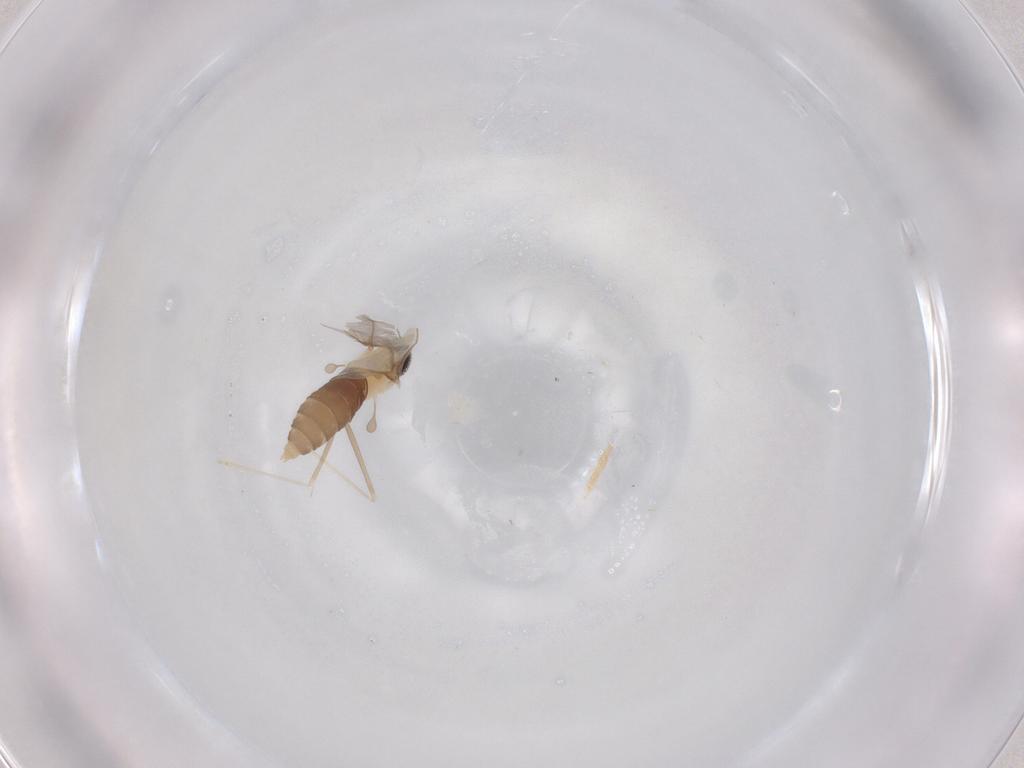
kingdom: Animalia
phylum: Arthropoda
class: Insecta
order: Diptera
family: Cecidomyiidae
